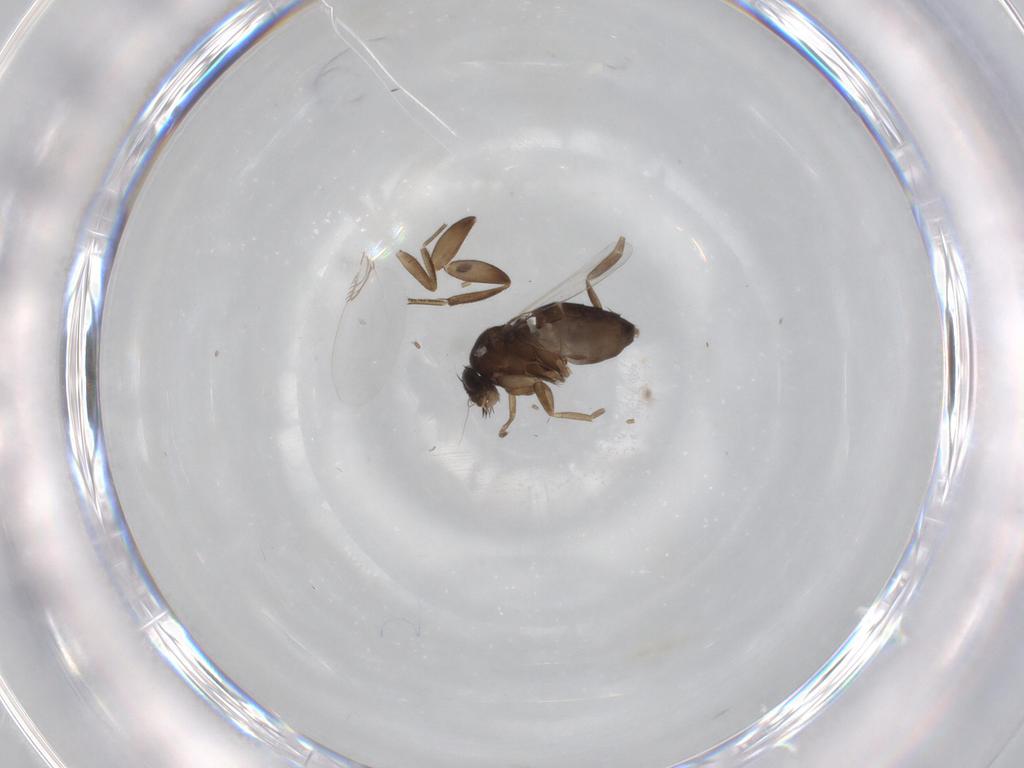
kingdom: Animalia
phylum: Arthropoda
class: Insecta
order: Diptera
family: Phoridae
